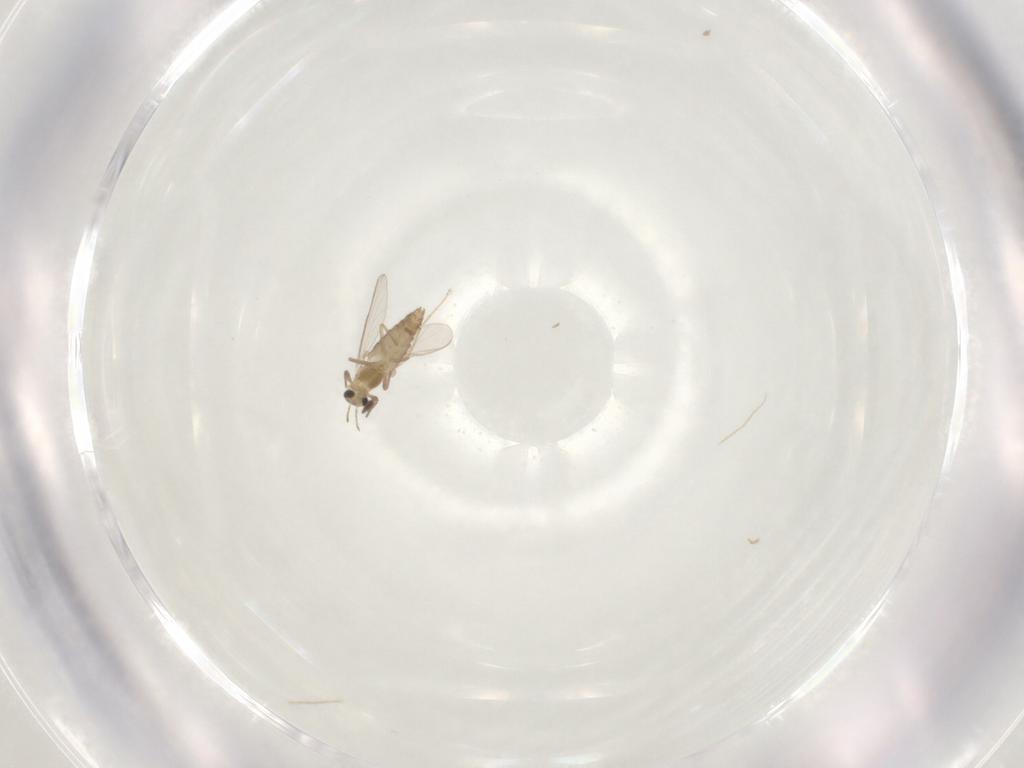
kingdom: Animalia
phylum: Arthropoda
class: Insecta
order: Diptera
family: Chironomidae
